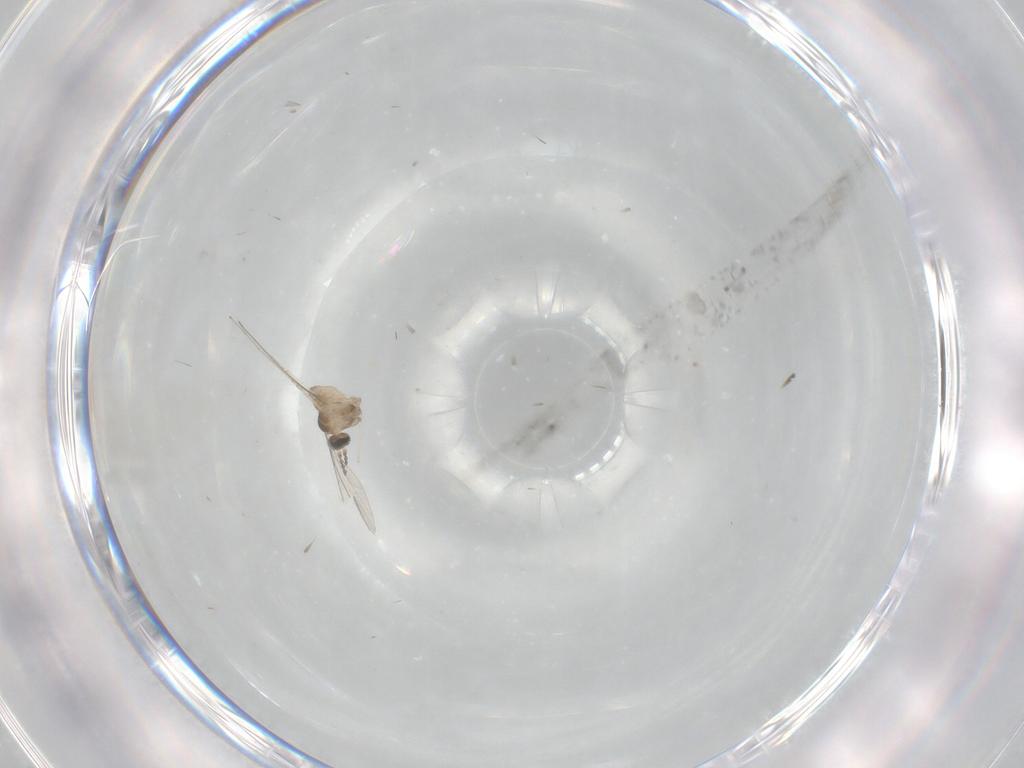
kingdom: Animalia
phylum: Arthropoda
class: Insecta
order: Diptera
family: Cecidomyiidae
